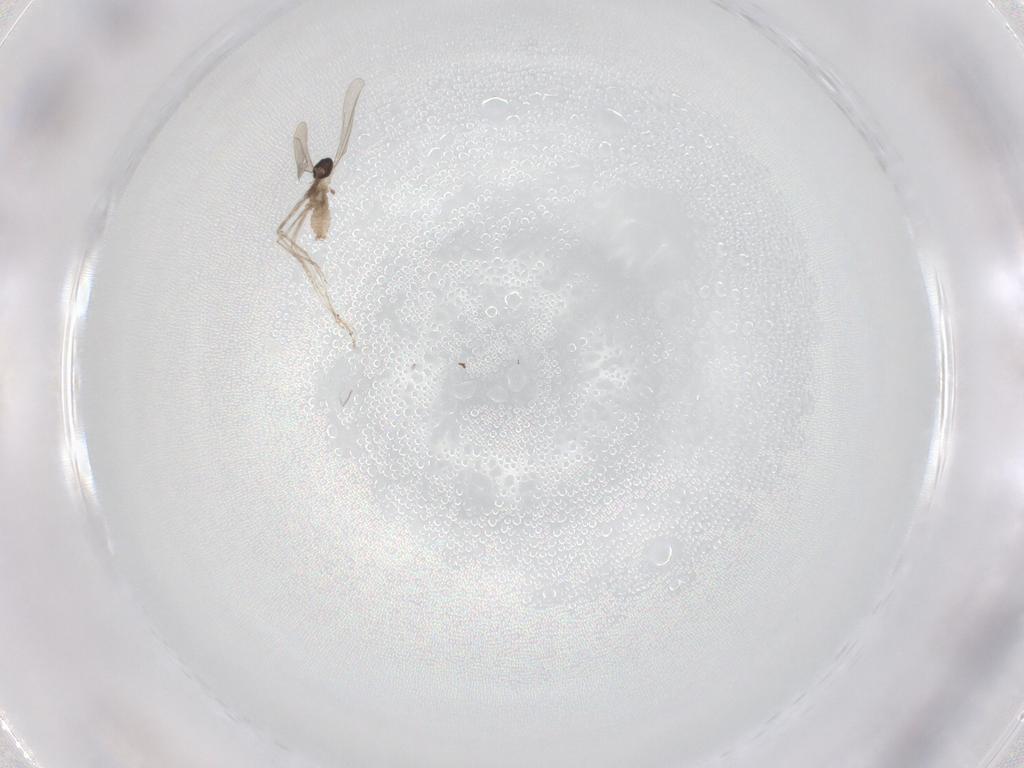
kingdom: Animalia
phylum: Arthropoda
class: Insecta
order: Diptera
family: Cecidomyiidae
